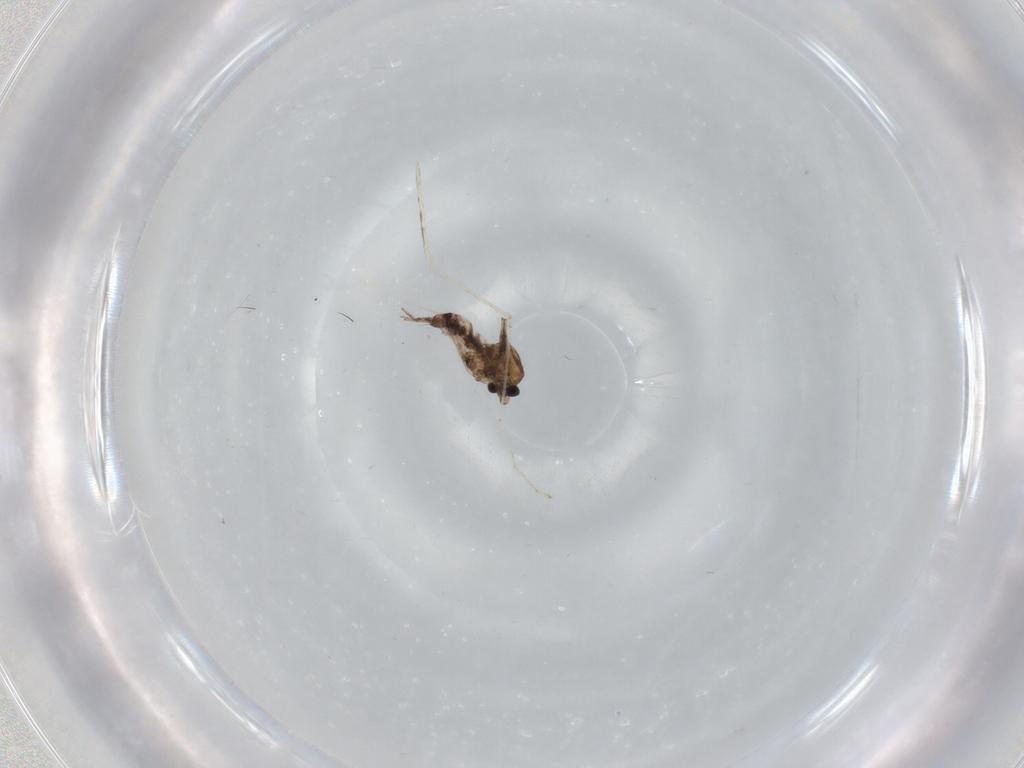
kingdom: Animalia
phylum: Arthropoda
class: Insecta
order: Diptera
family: Ceratopogonidae
